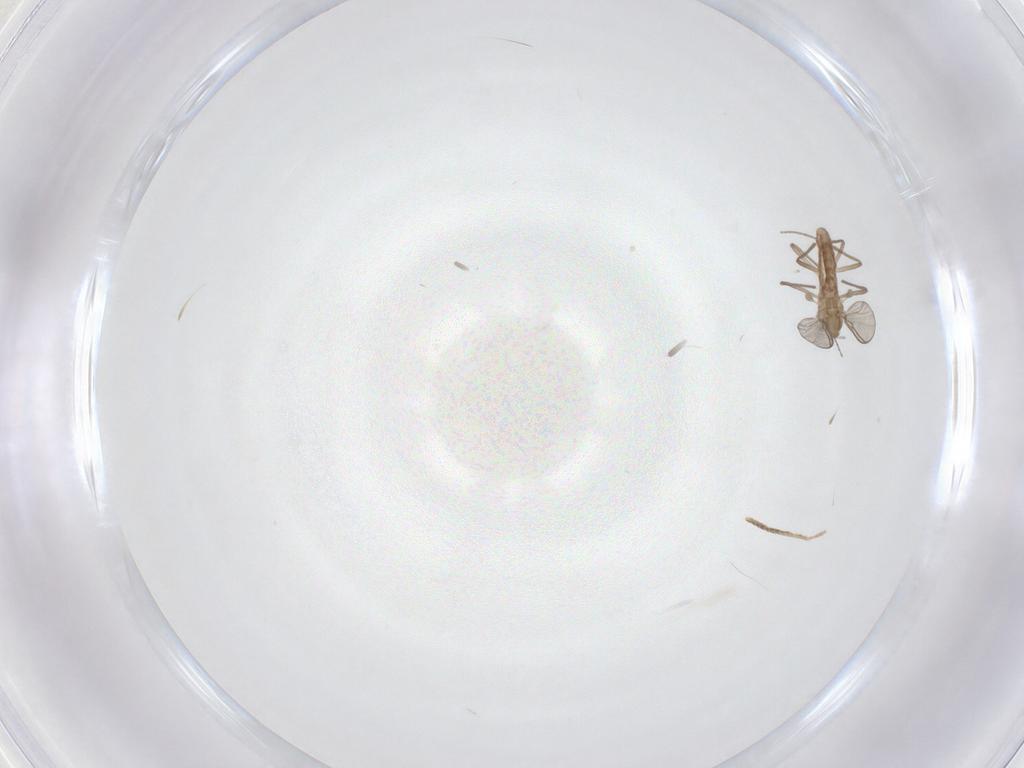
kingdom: Animalia
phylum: Arthropoda
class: Insecta
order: Diptera
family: Chironomidae
